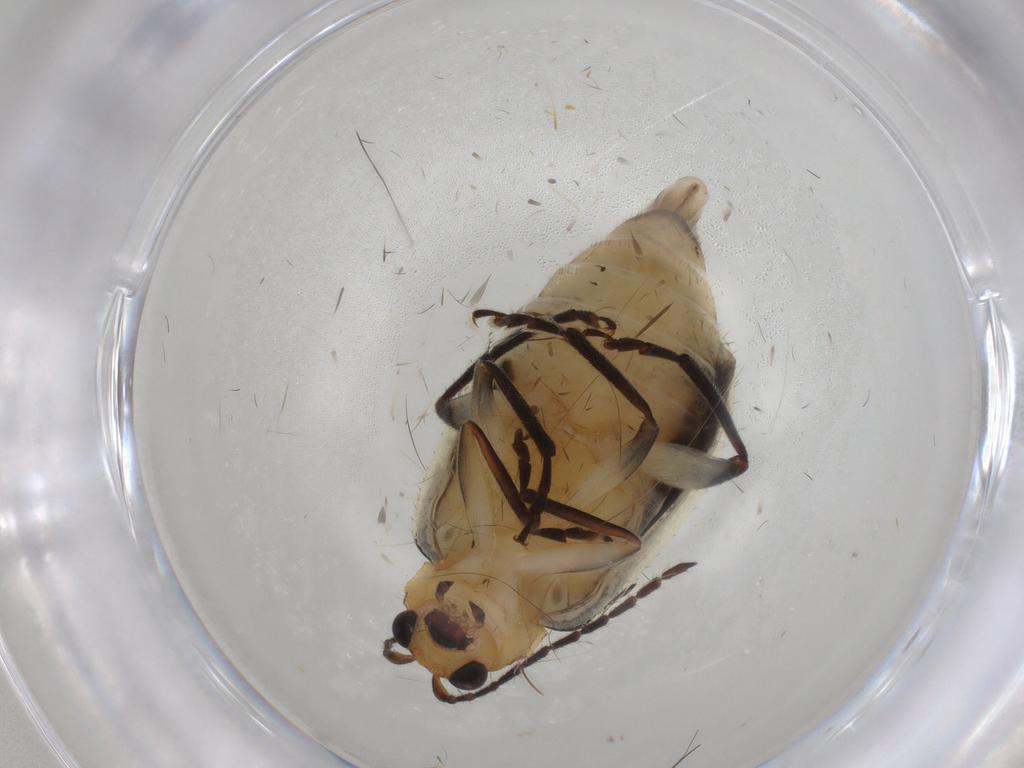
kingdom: Animalia
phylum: Arthropoda
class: Insecta
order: Coleoptera
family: Chrysomelidae
